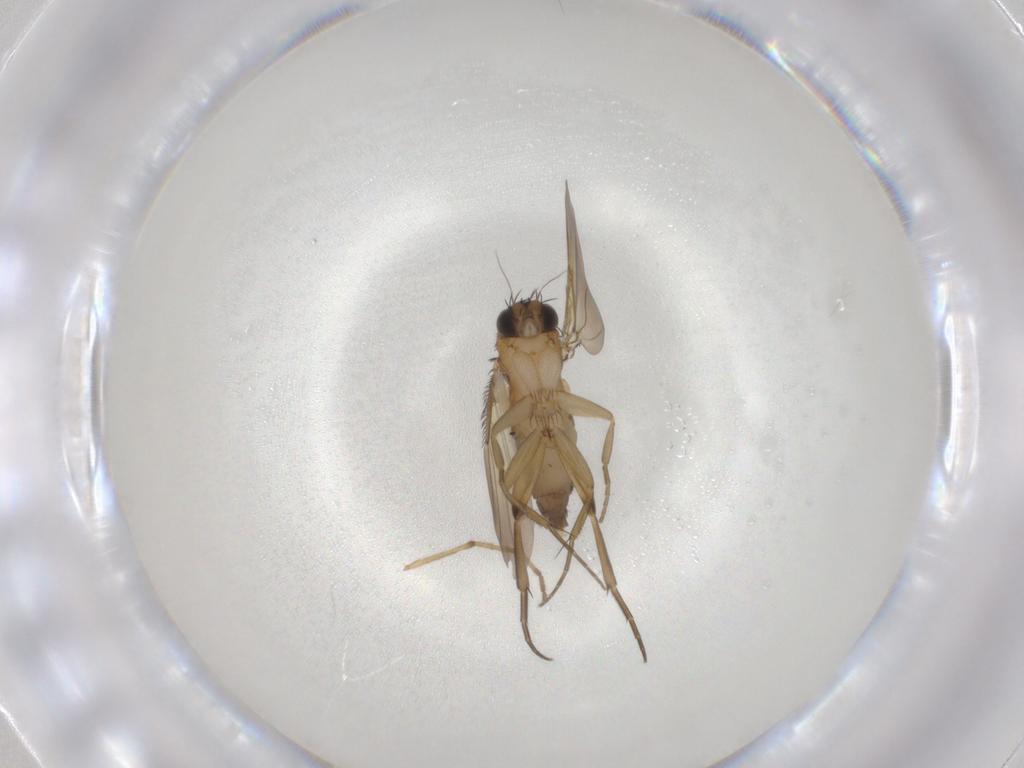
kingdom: Animalia
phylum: Arthropoda
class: Insecta
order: Diptera
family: Phoridae
